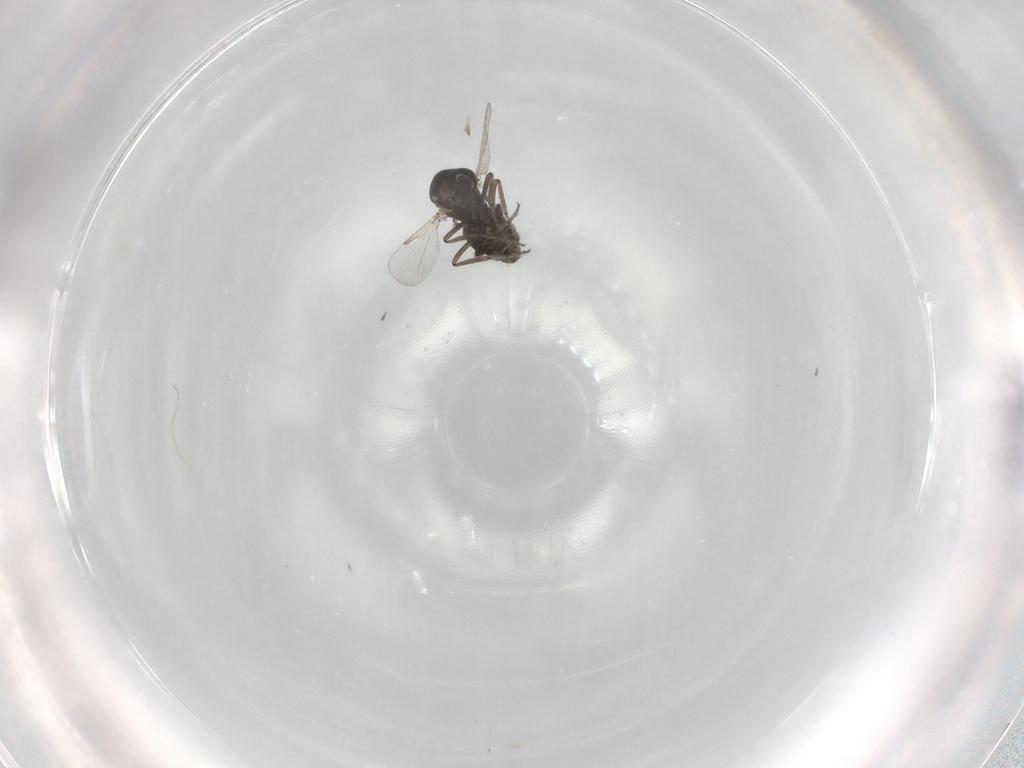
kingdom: Animalia
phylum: Arthropoda
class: Insecta
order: Diptera
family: Ceratopogonidae
